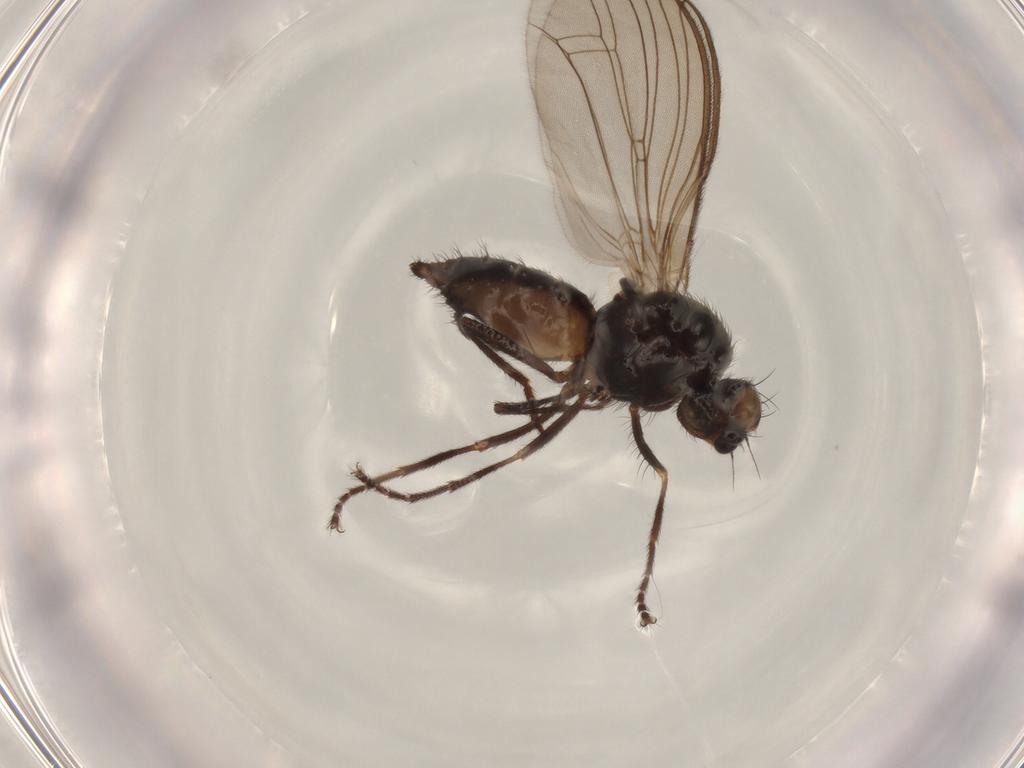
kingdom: Animalia
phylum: Arthropoda
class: Insecta
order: Diptera
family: Heleomyzidae
